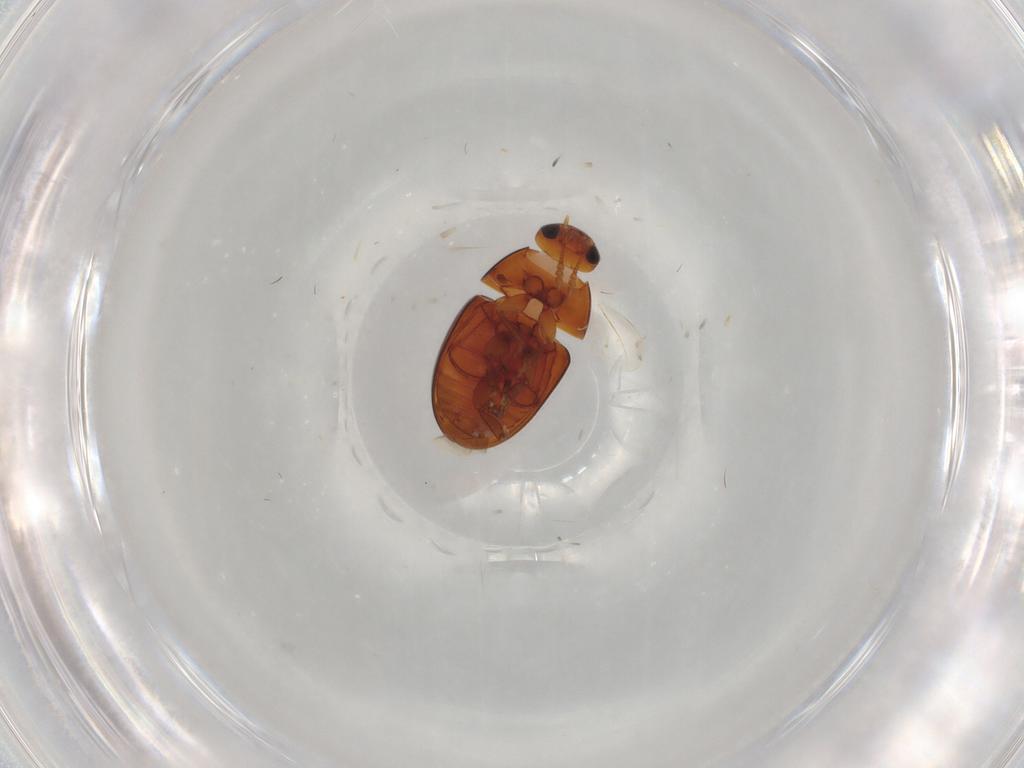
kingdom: Animalia
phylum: Arthropoda
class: Insecta
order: Coleoptera
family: Phalacridae
